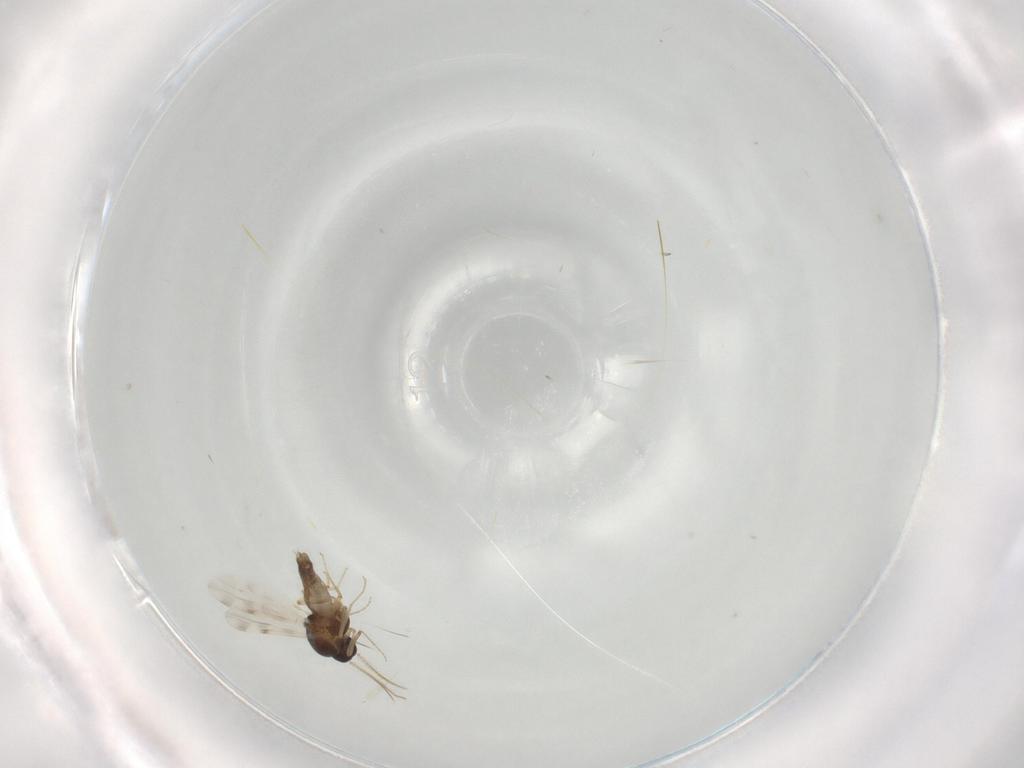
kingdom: Animalia
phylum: Arthropoda
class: Insecta
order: Diptera
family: Ceratopogonidae
